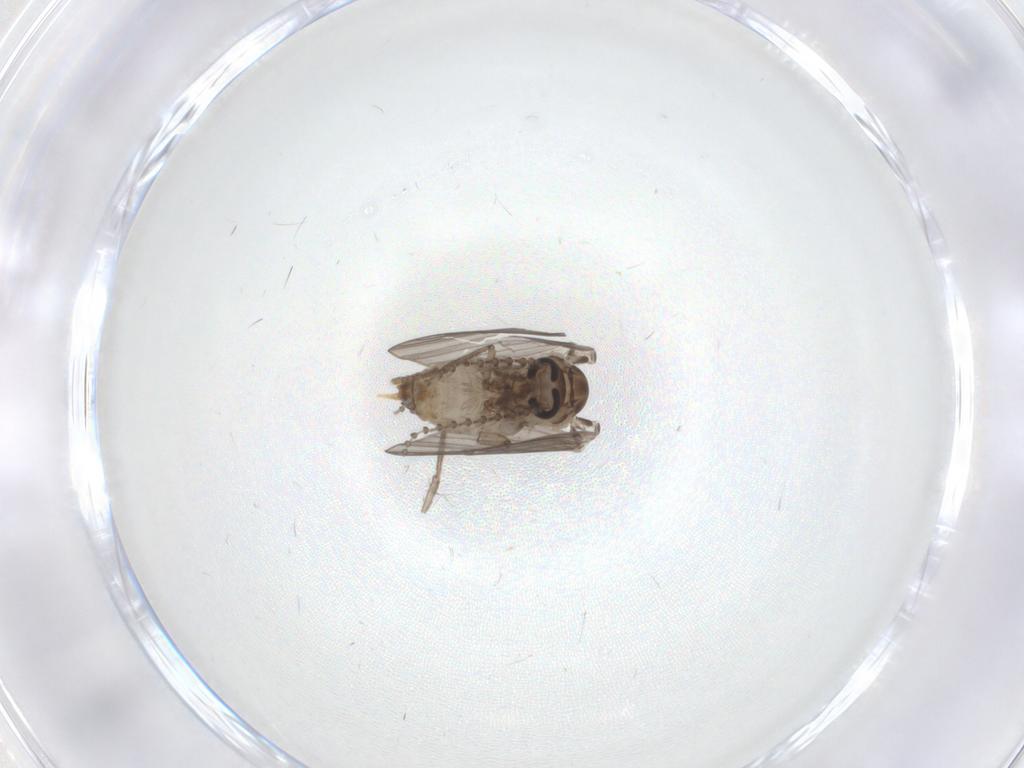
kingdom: Animalia
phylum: Arthropoda
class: Insecta
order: Diptera
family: Psychodidae
